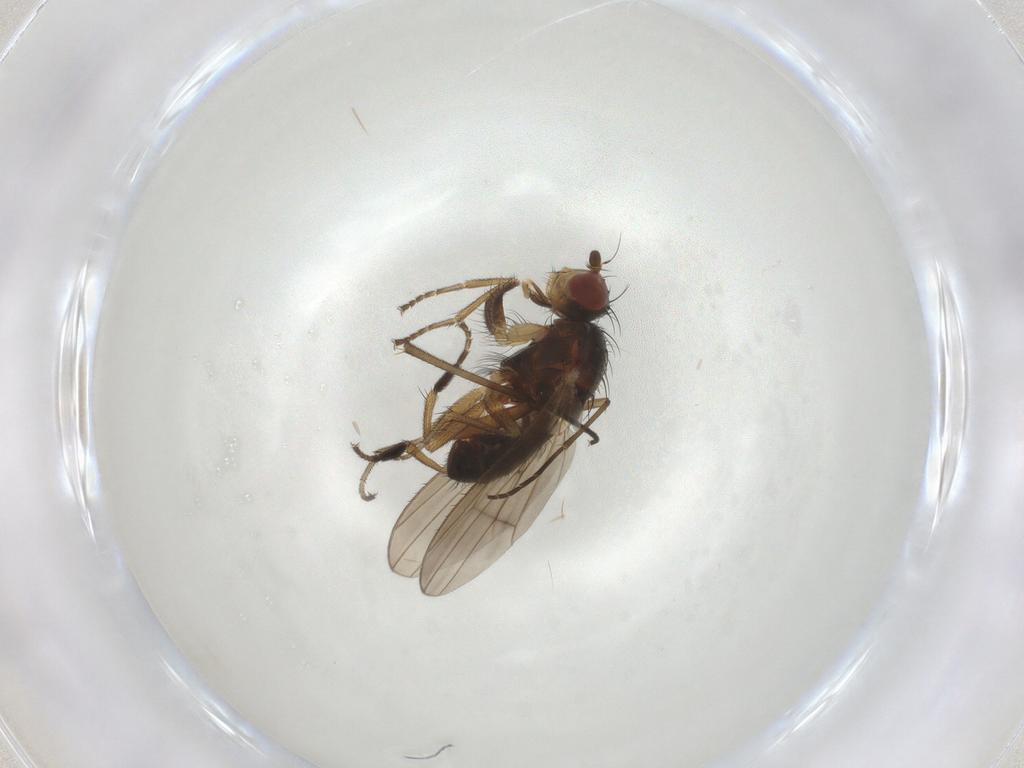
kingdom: Animalia
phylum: Arthropoda
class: Insecta
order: Diptera
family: Heleomyzidae
